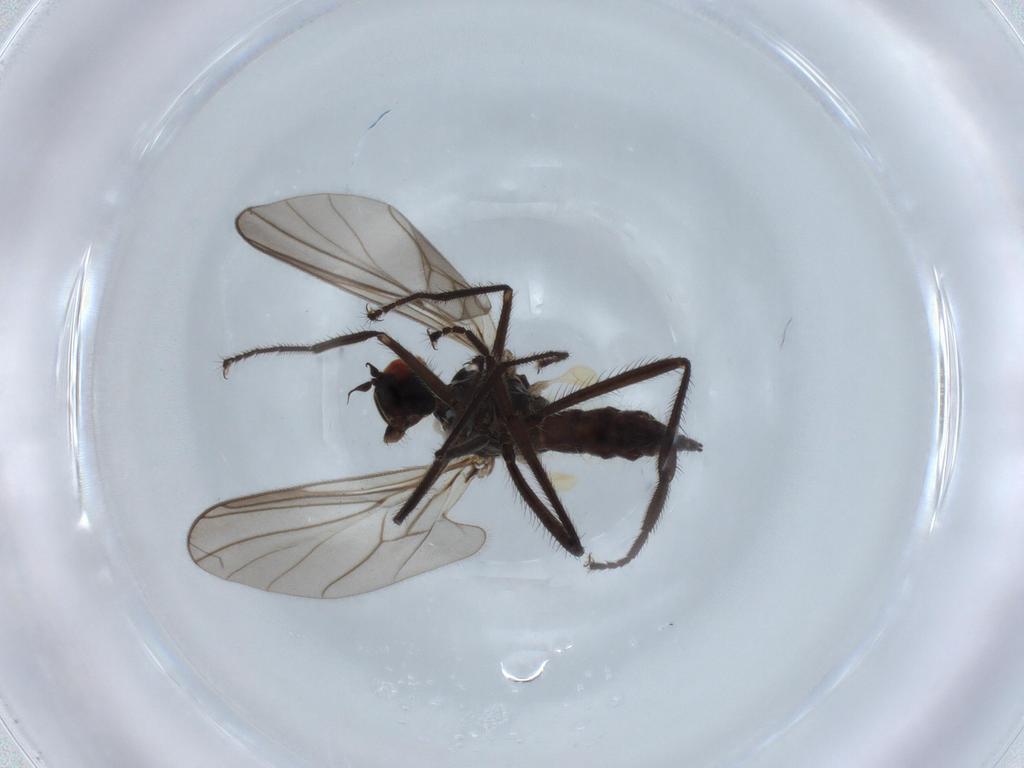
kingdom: Animalia
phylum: Arthropoda
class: Insecta
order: Diptera
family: Hybotidae
